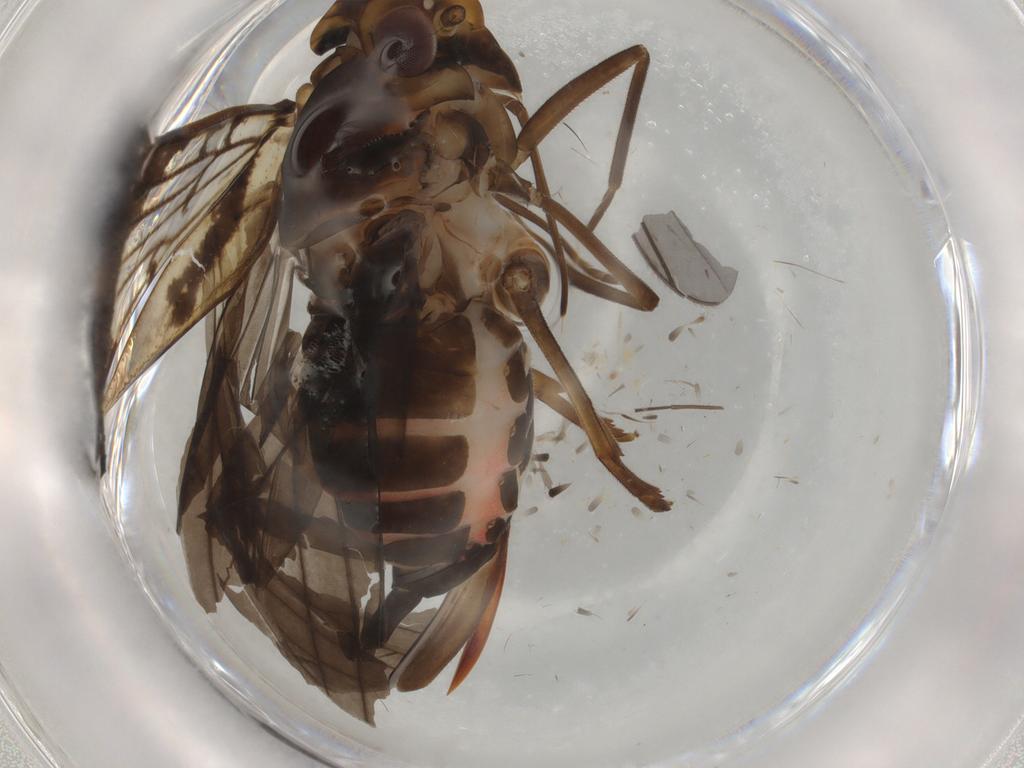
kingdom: Animalia
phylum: Arthropoda
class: Insecta
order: Hemiptera
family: Cixiidae
